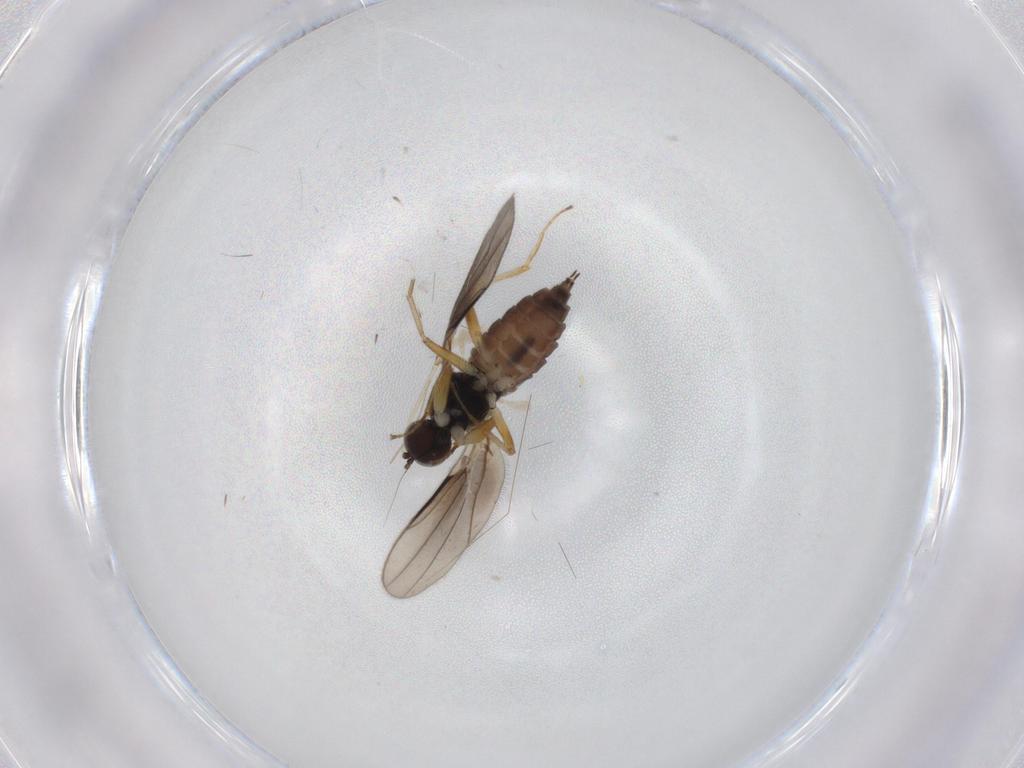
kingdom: Animalia
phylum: Arthropoda
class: Insecta
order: Diptera
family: Hybotidae
